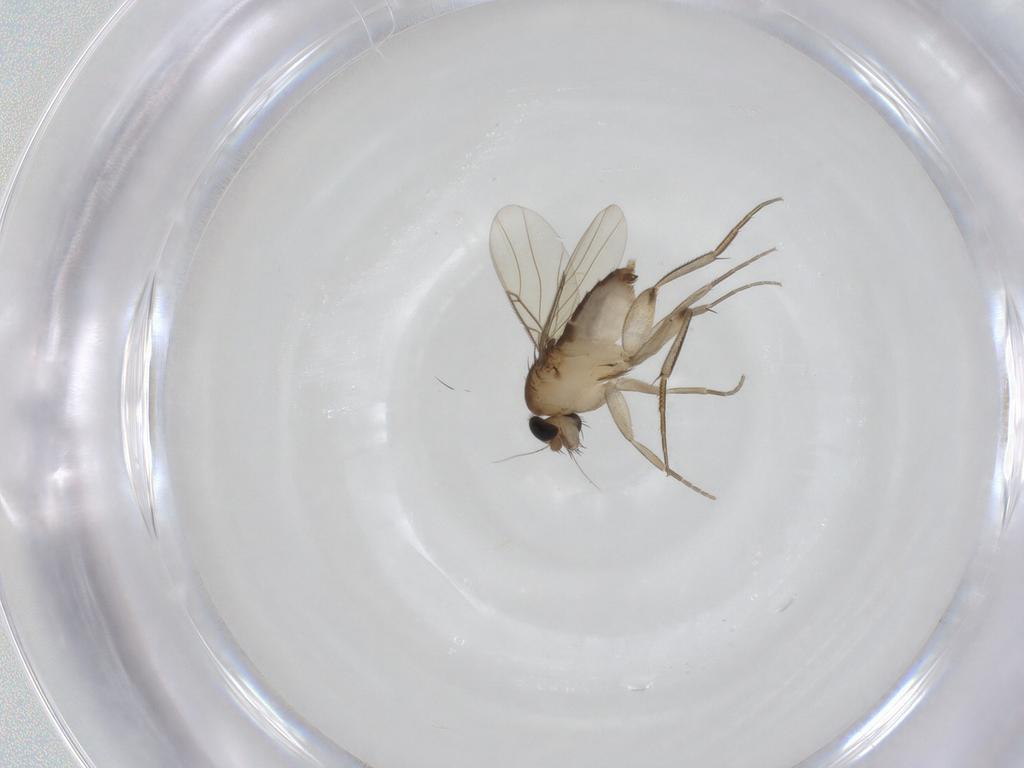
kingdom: Animalia
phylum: Arthropoda
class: Insecta
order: Diptera
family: Phoridae
